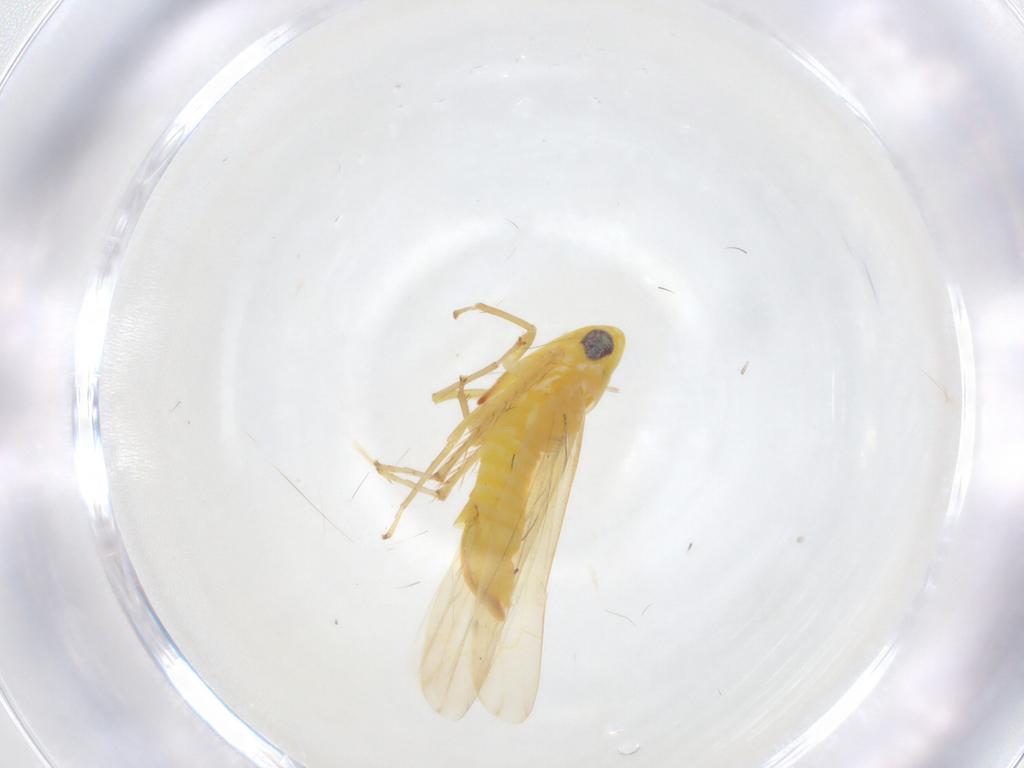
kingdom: Animalia
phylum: Arthropoda
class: Insecta
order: Hemiptera
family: Cicadellidae
